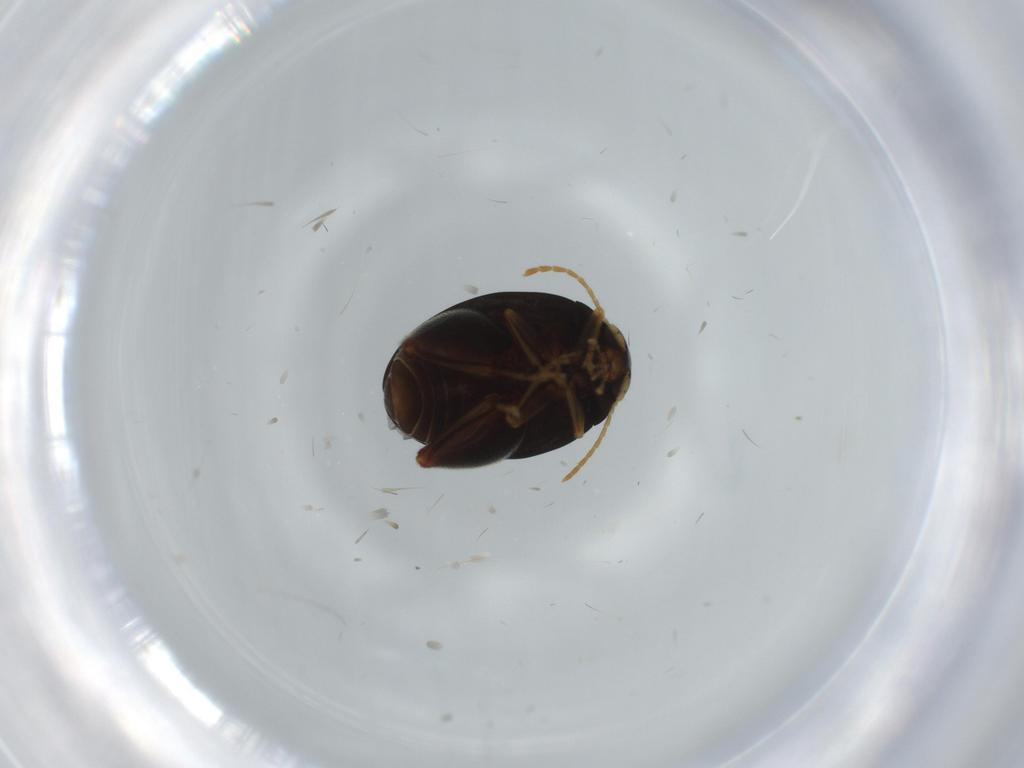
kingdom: Animalia
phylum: Arthropoda
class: Insecta
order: Coleoptera
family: Chrysomelidae
